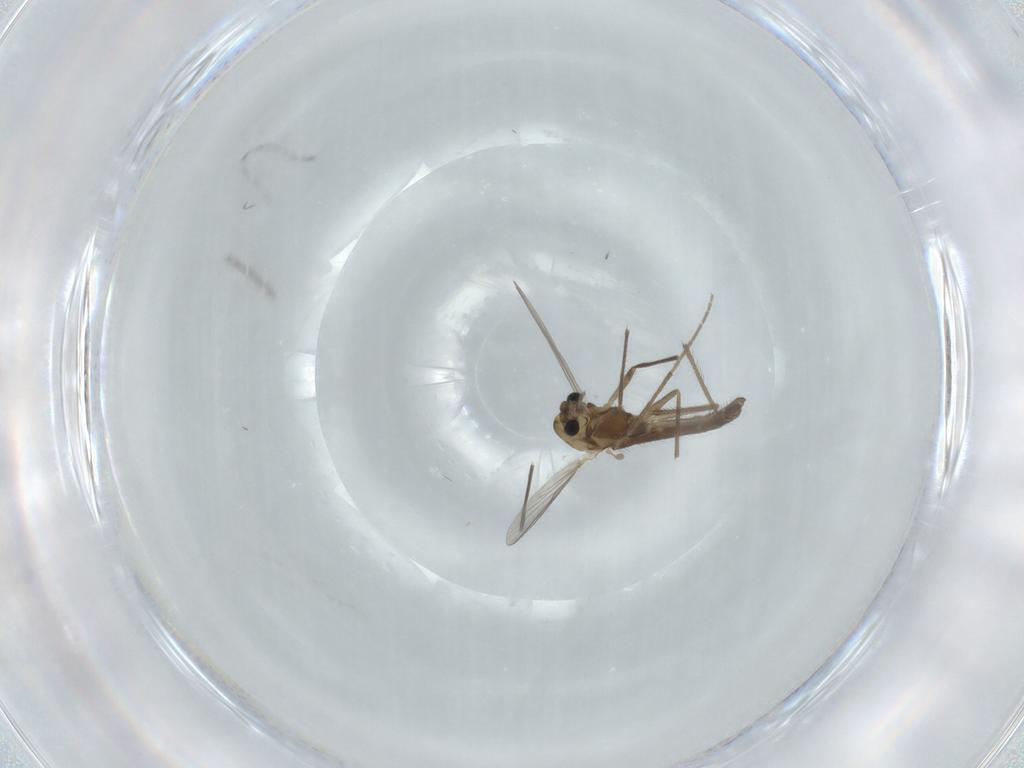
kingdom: Animalia
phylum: Arthropoda
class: Insecta
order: Diptera
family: Chironomidae
